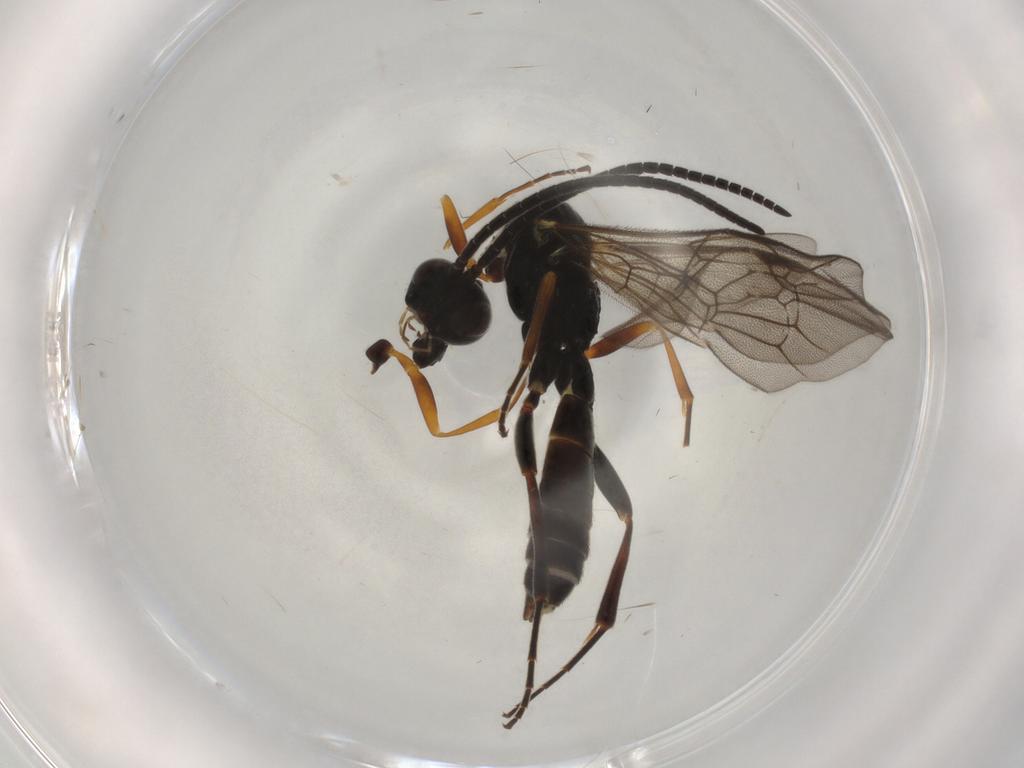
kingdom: Animalia
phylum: Arthropoda
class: Insecta
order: Hymenoptera
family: Ichneumonidae
